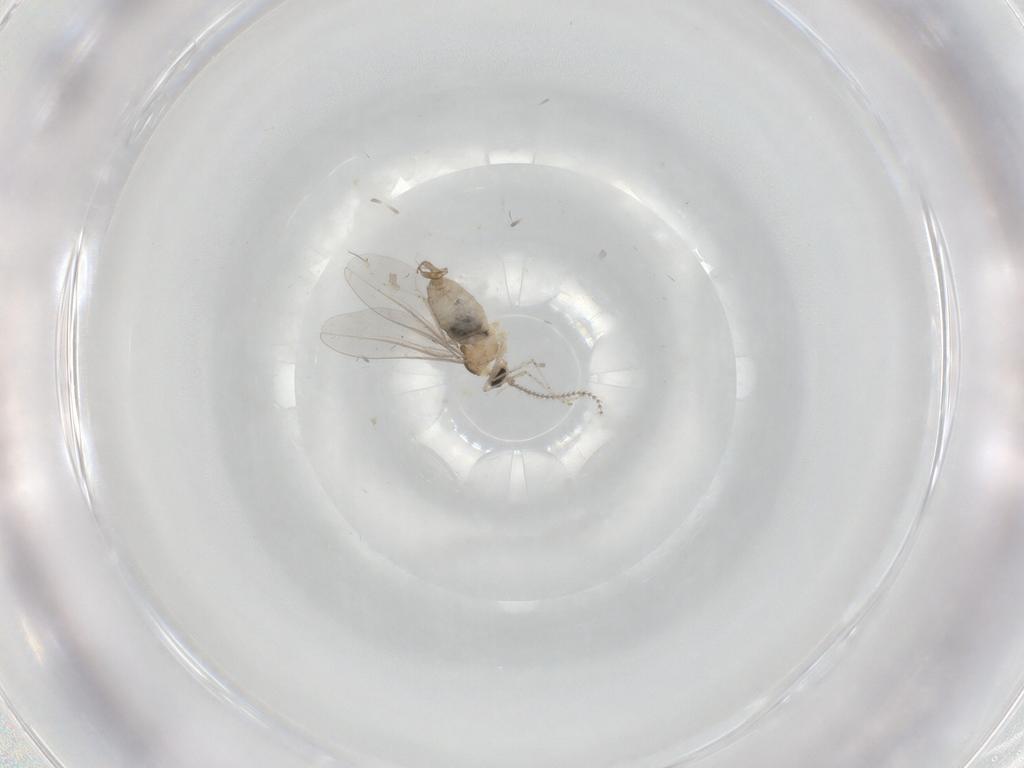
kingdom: Animalia
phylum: Arthropoda
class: Insecta
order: Diptera
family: Cecidomyiidae
